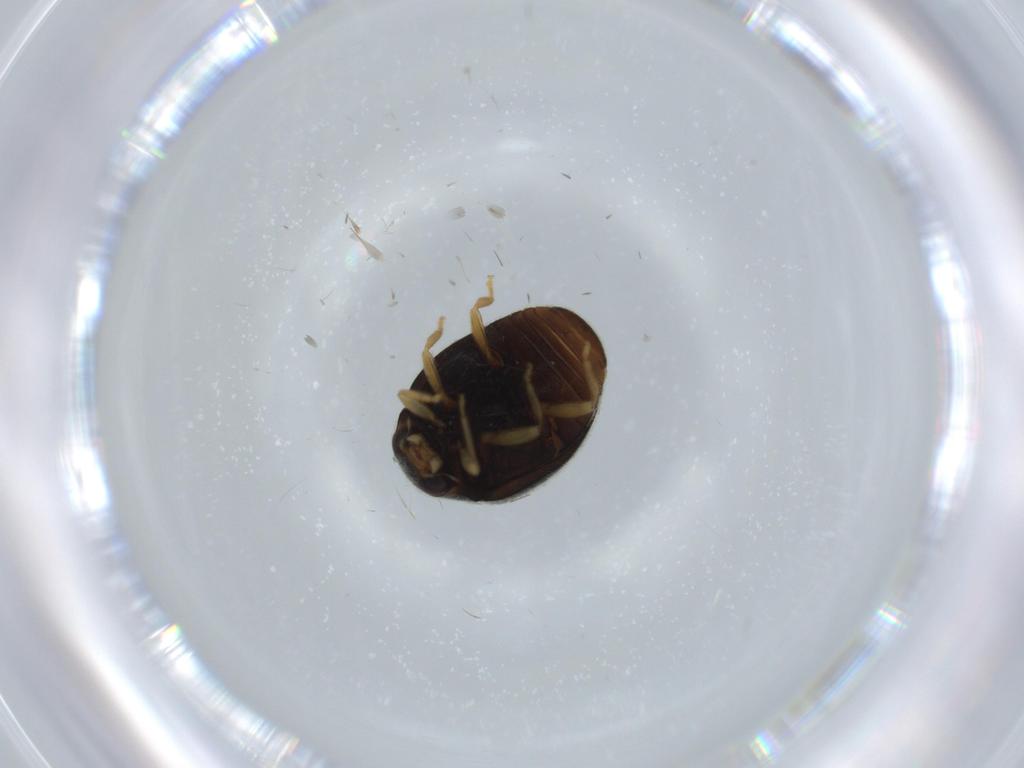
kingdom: Animalia
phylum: Arthropoda
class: Insecta
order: Coleoptera
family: Coccinellidae
